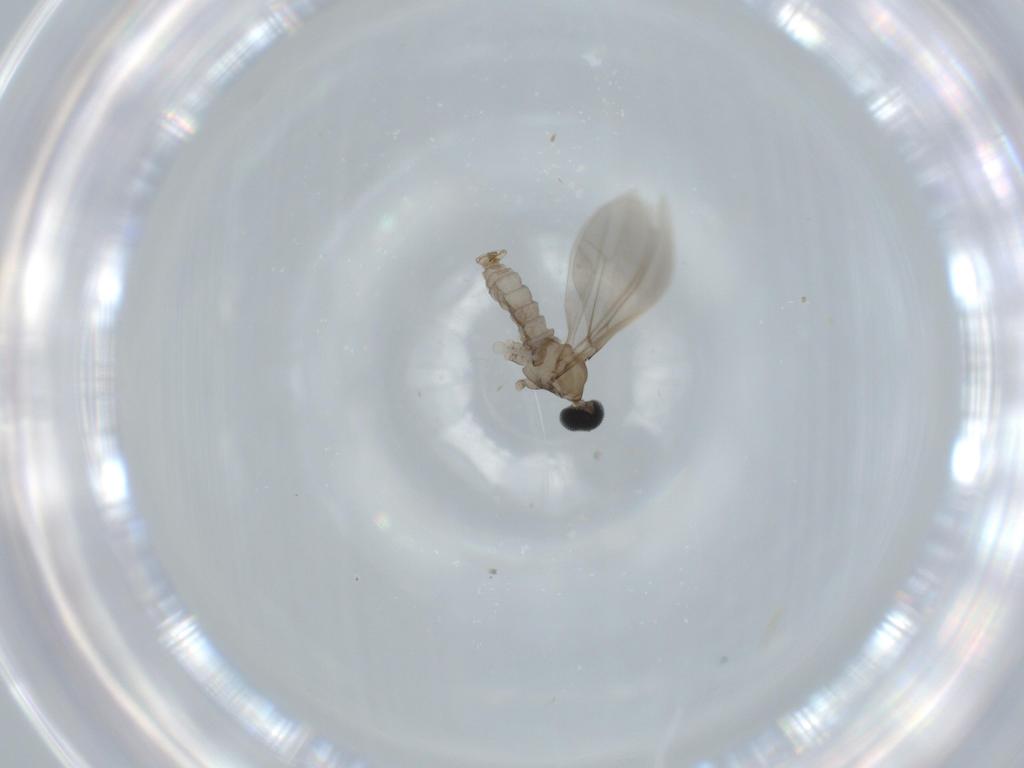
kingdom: Animalia
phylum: Arthropoda
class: Insecta
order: Diptera
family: Cecidomyiidae
